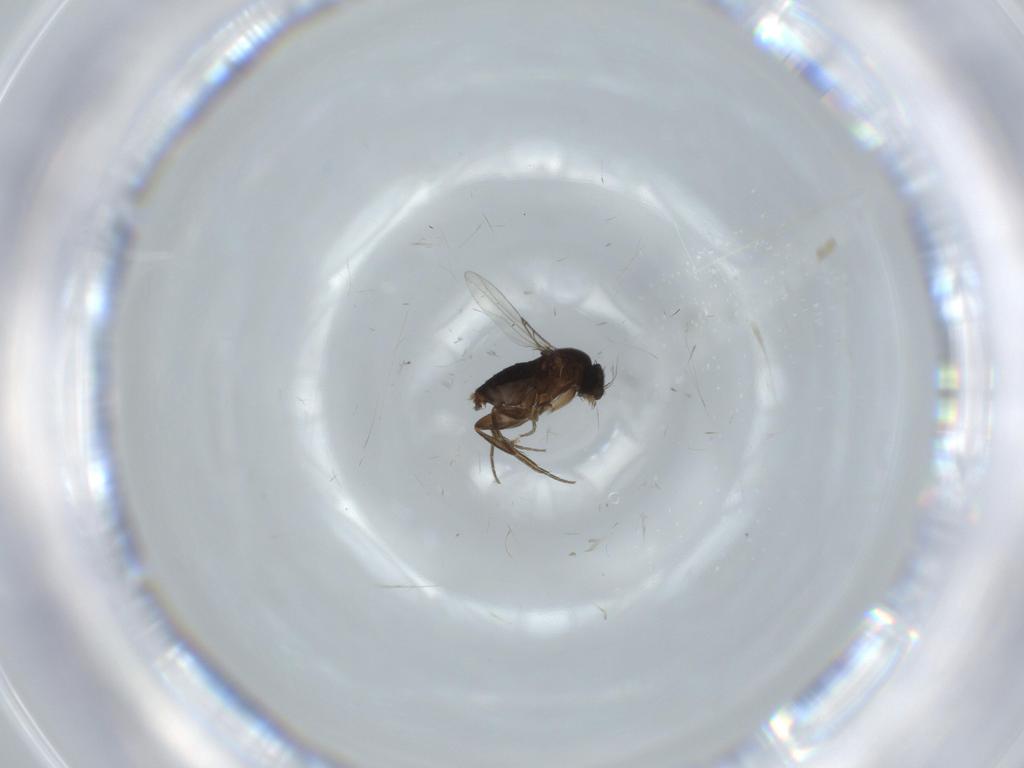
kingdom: Animalia
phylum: Arthropoda
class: Insecta
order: Diptera
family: Phoridae
